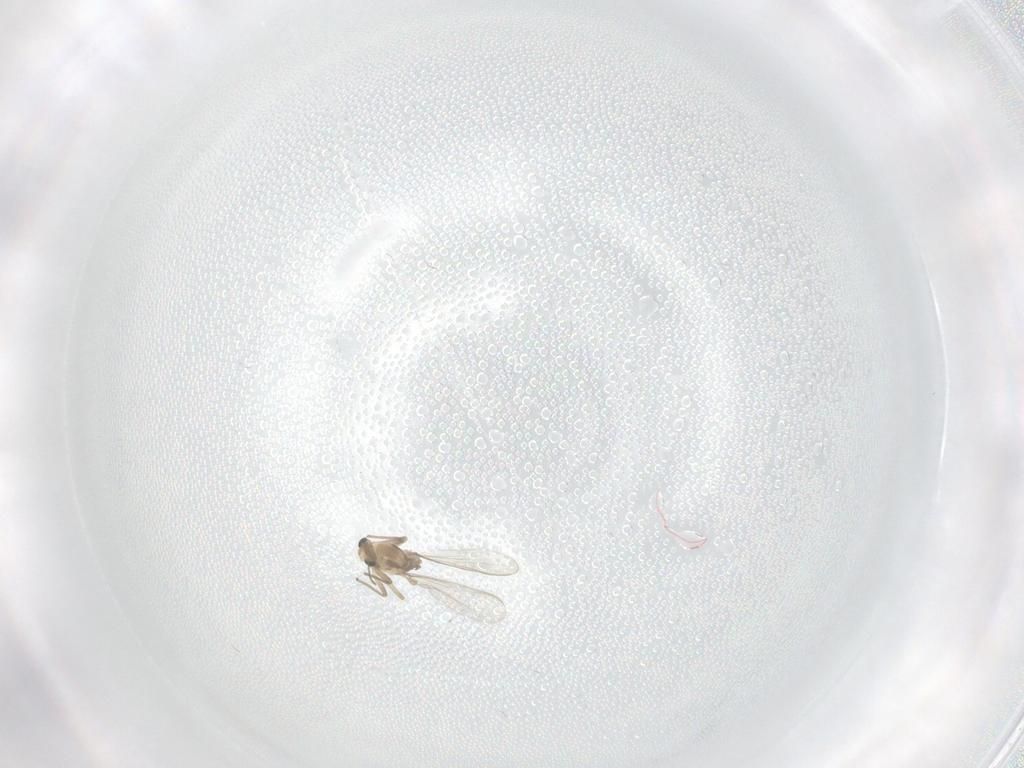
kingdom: Animalia
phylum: Arthropoda
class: Insecta
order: Diptera
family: Chironomidae
